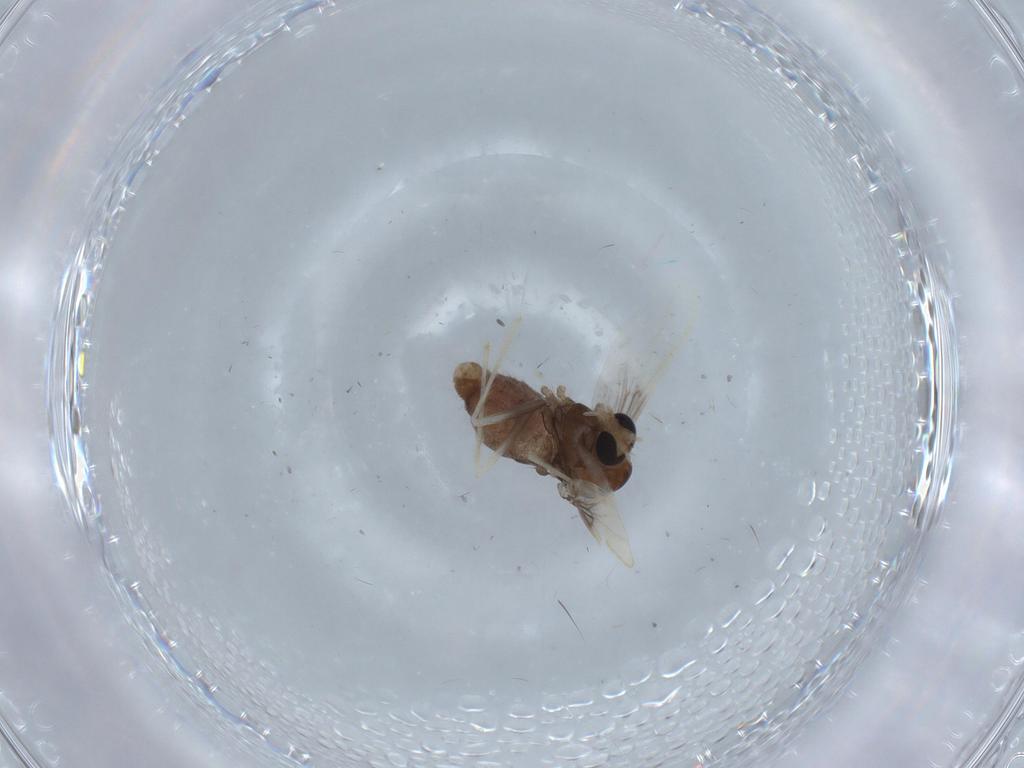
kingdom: Animalia
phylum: Arthropoda
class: Insecta
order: Diptera
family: Chironomidae
